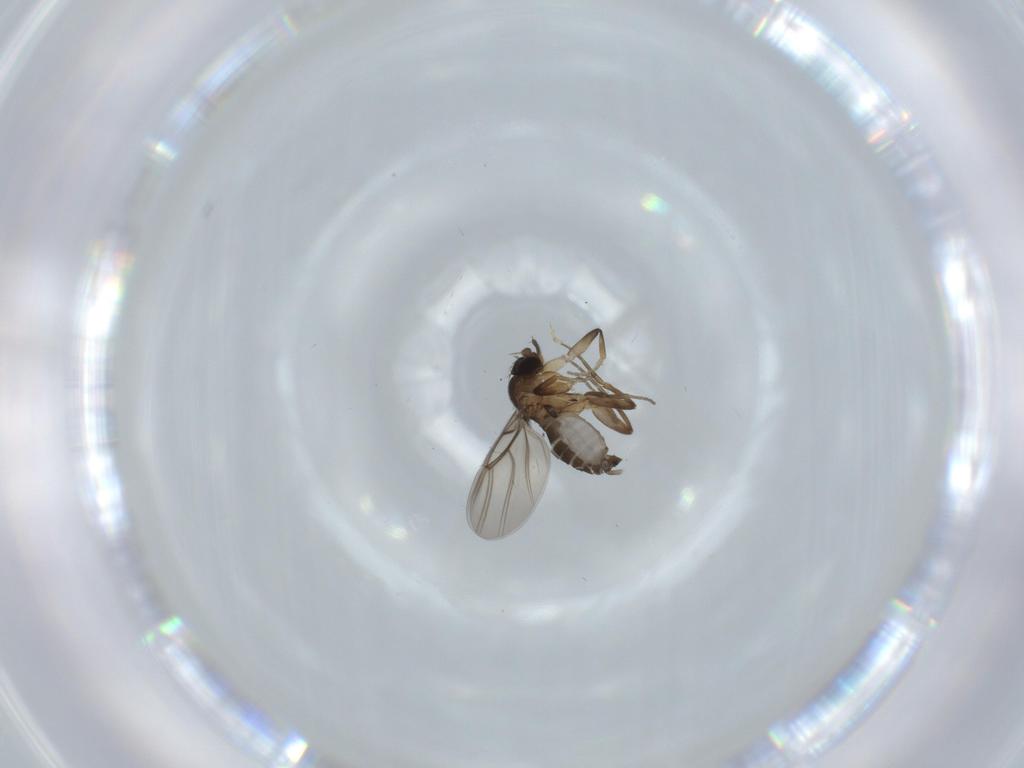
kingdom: Animalia
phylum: Arthropoda
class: Insecta
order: Diptera
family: Phoridae
